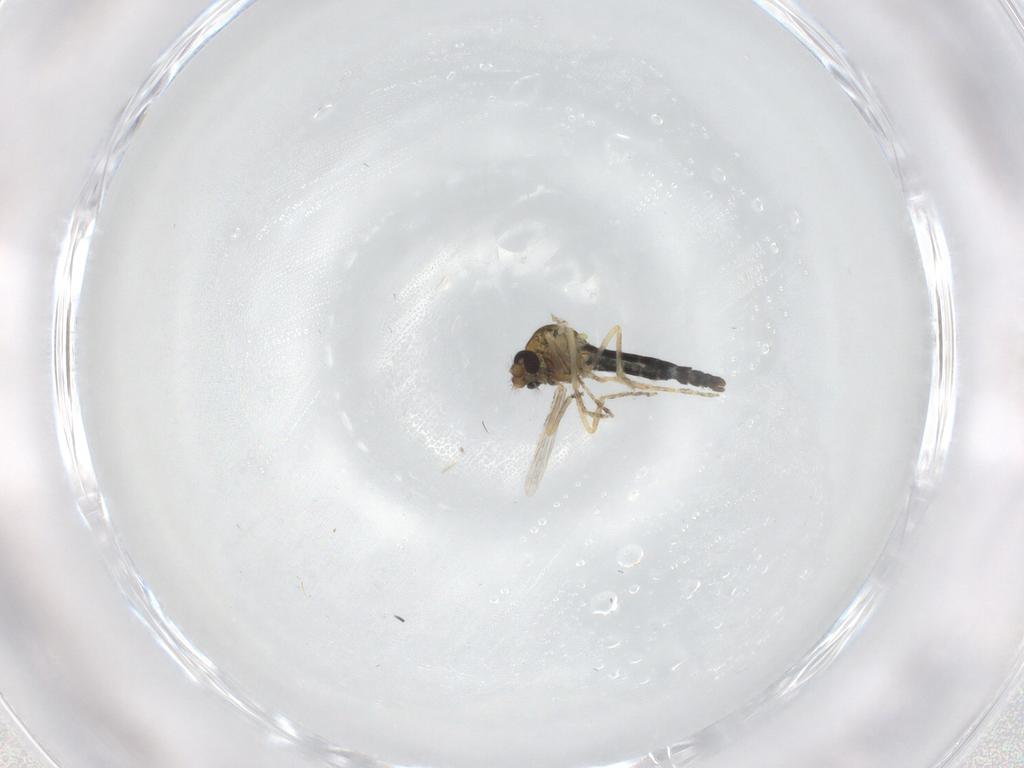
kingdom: Animalia
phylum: Arthropoda
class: Insecta
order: Diptera
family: Ceratopogonidae
